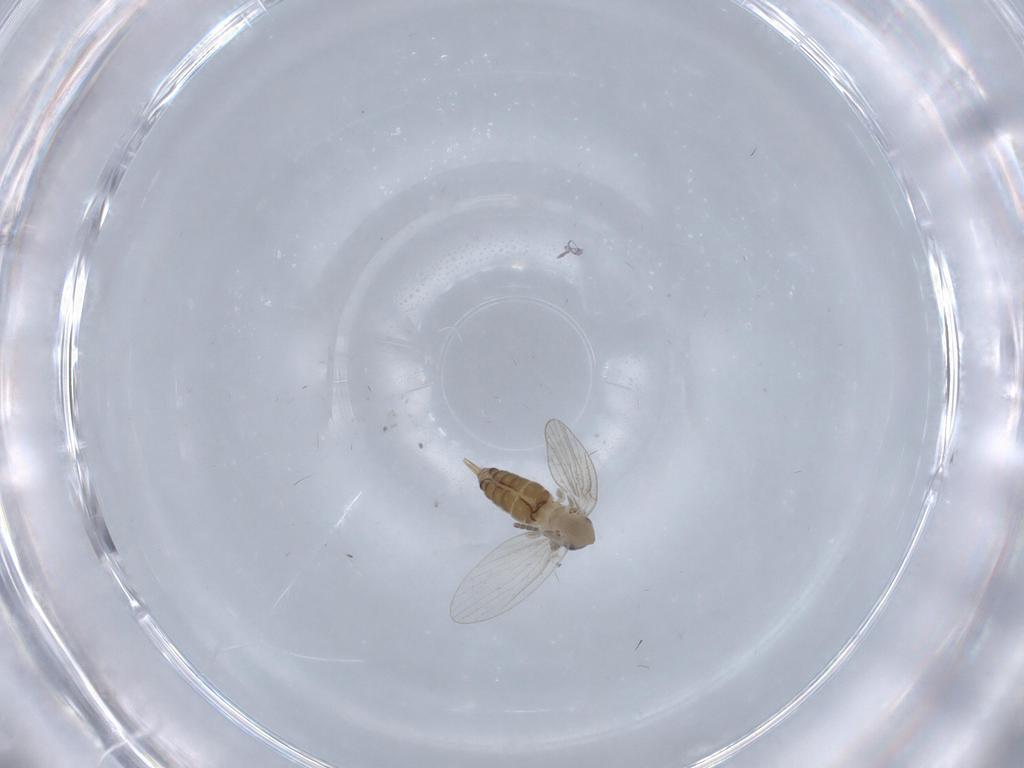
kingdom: Animalia
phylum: Arthropoda
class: Insecta
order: Diptera
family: Psychodidae
